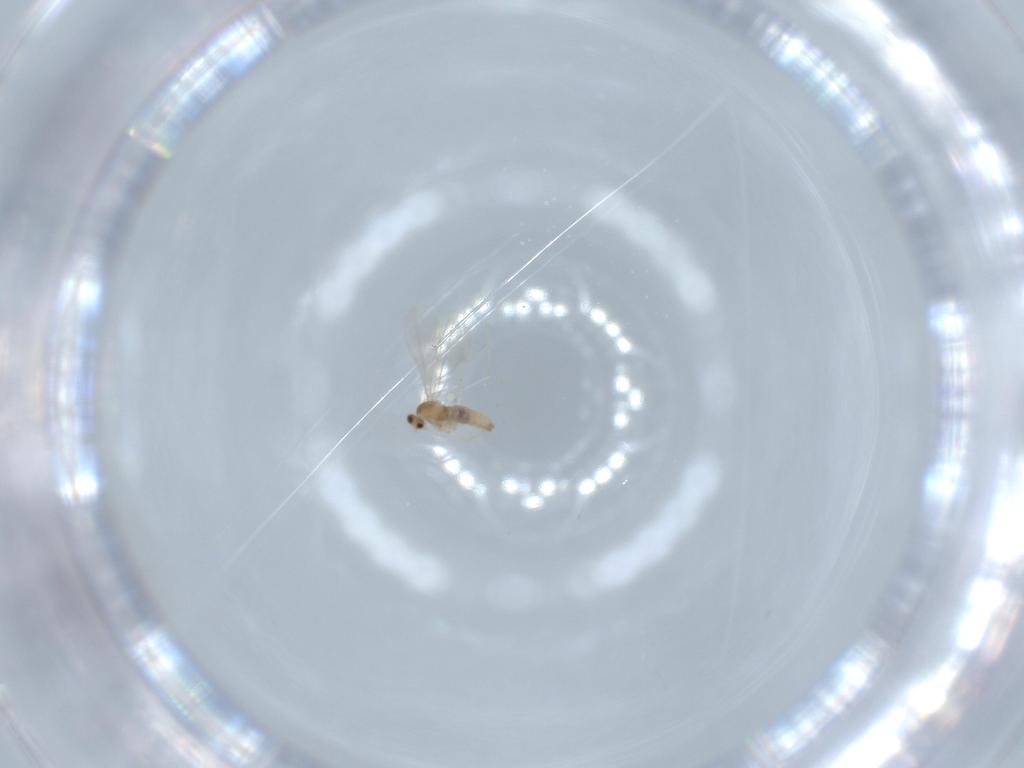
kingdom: Animalia
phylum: Arthropoda
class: Insecta
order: Diptera
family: Cecidomyiidae
